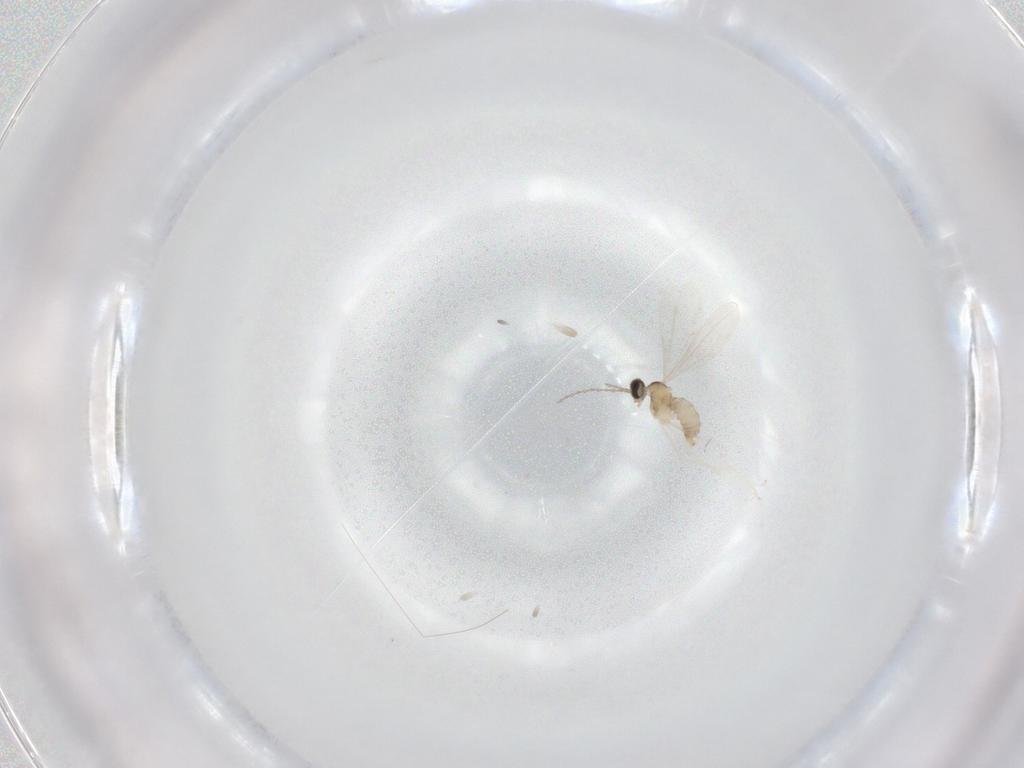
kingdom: Animalia
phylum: Arthropoda
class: Insecta
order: Diptera
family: Cecidomyiidae
